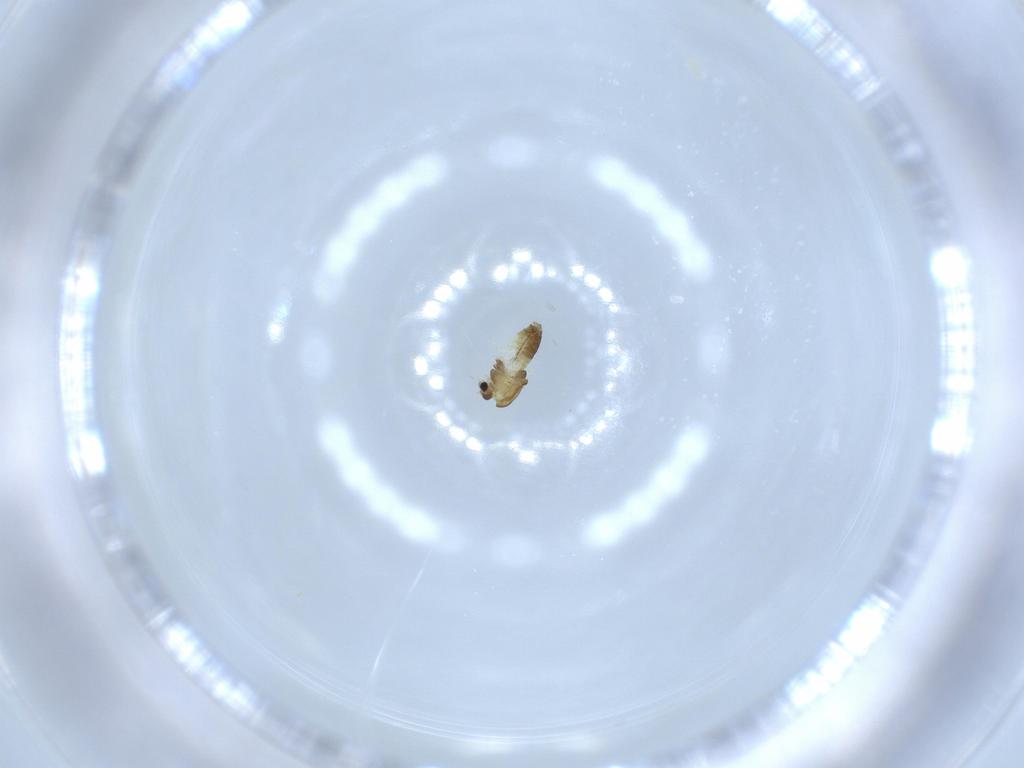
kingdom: Animalia
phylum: Arthropoda
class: Insecta
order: Diptera
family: Chironomidae
